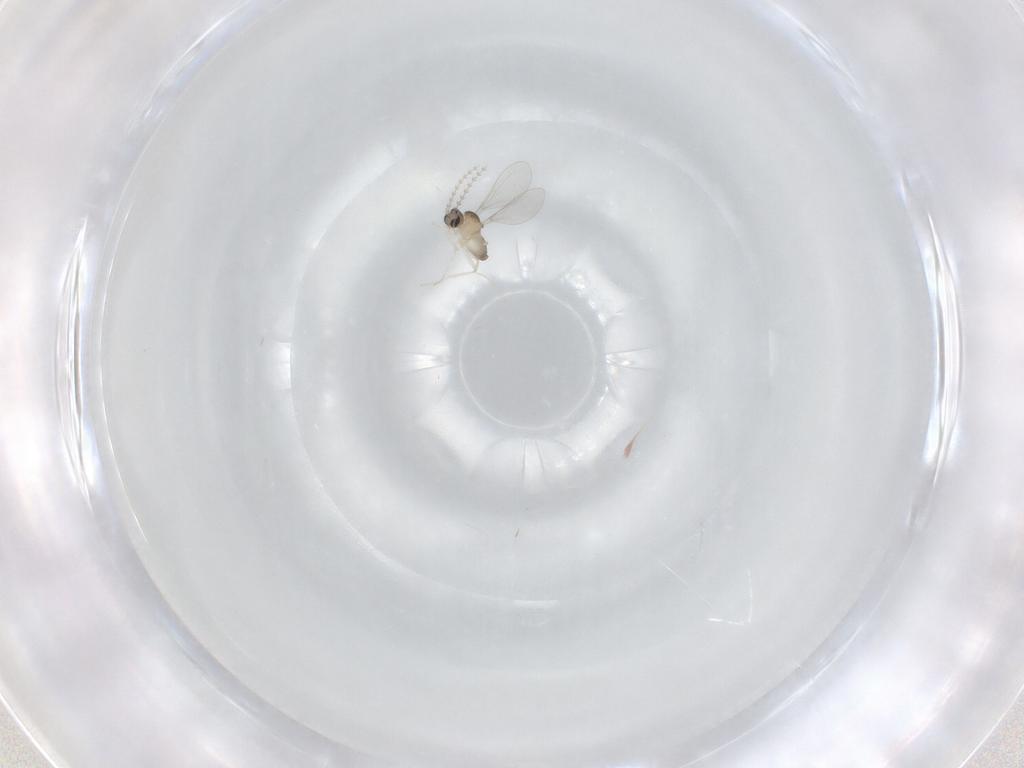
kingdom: Animalia
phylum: Arthropoda
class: Insecta
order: Diptera
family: Cecidomyiidae
